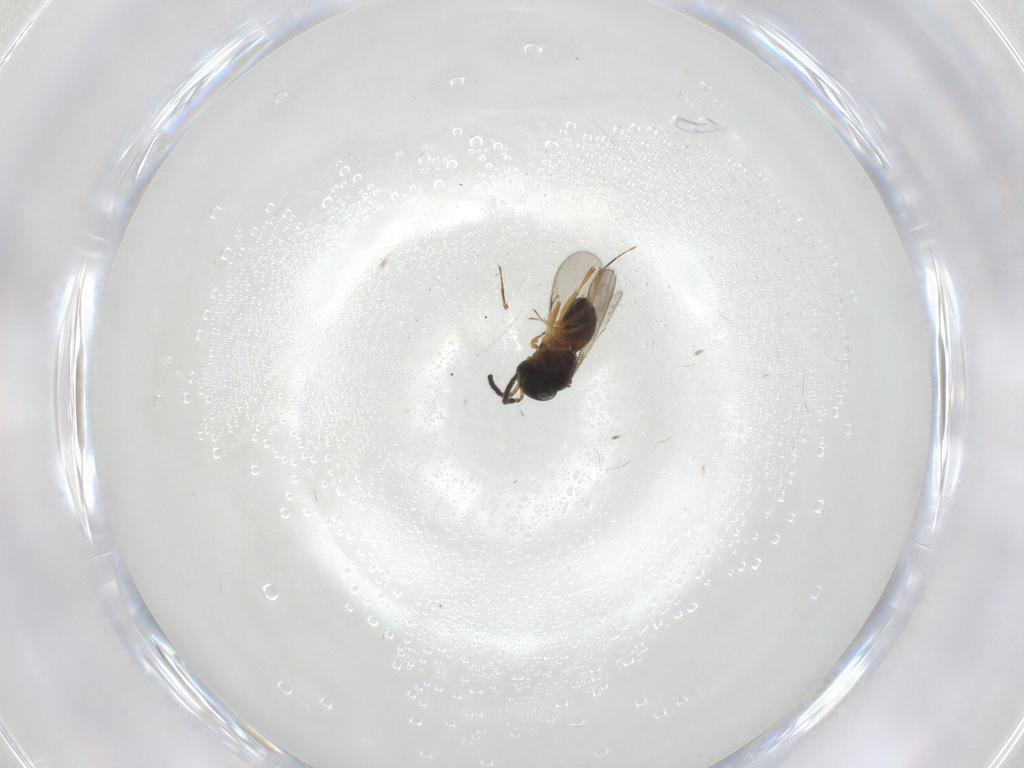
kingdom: Animalia
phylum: Arthropoda
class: Insecta
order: Hymenoptera
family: Scelionidae
